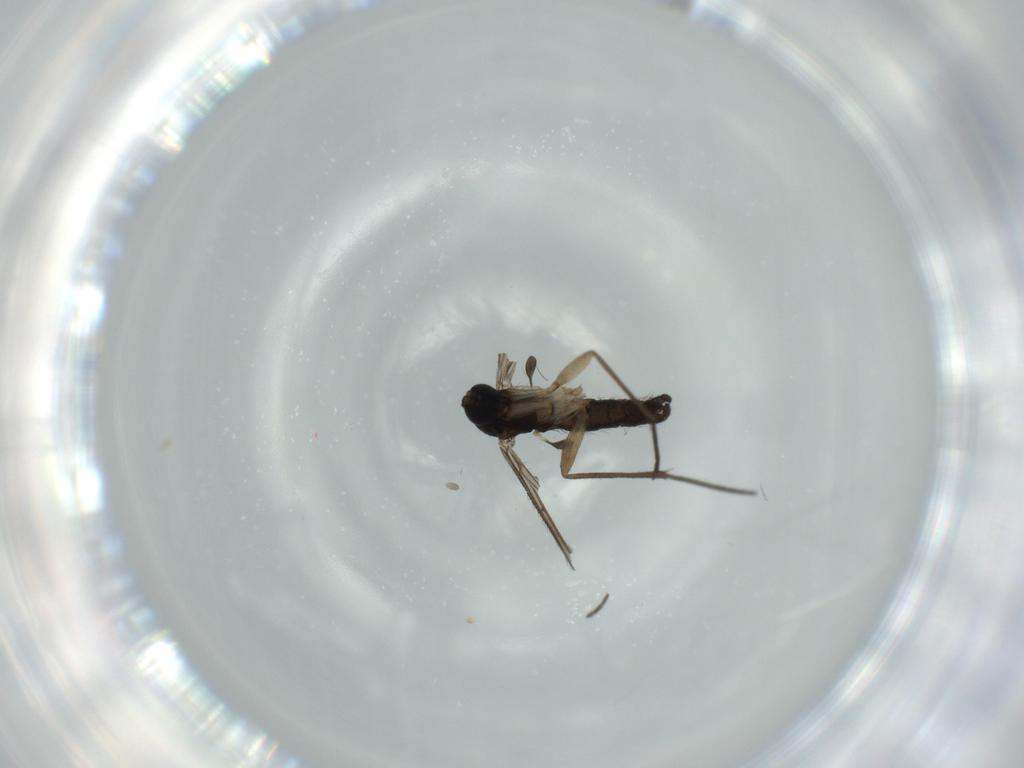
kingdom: Animalia
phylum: Arthropoda
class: Insecta
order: Diptera
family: Sciaridae
